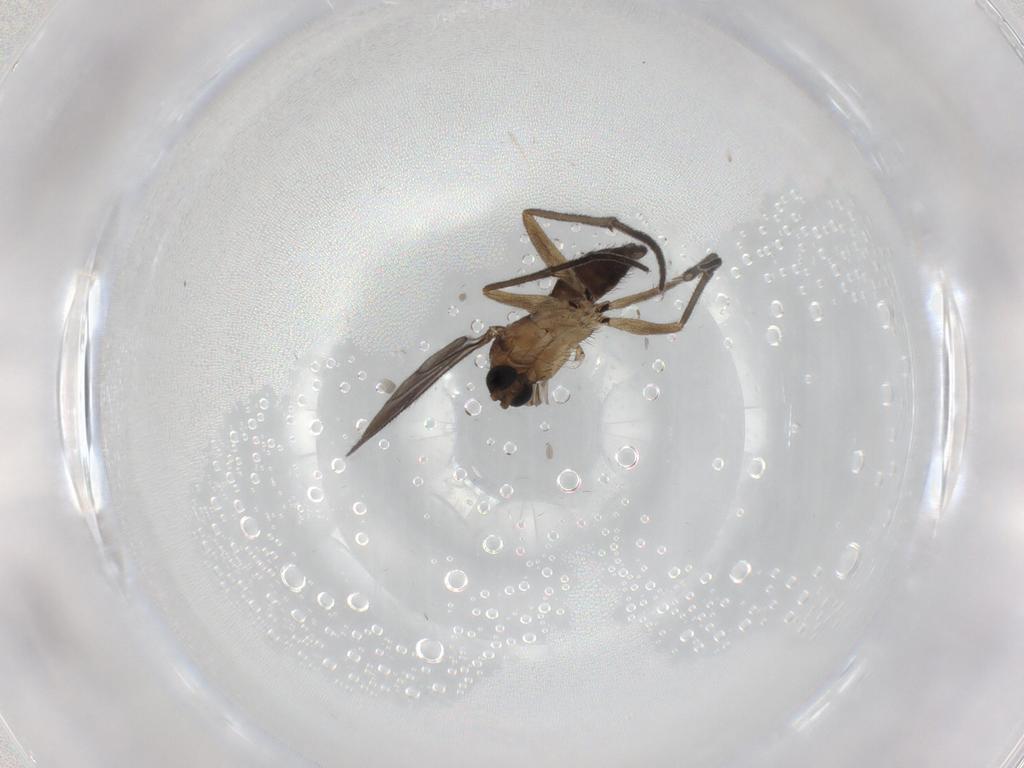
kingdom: Animalia
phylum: Arthropoda
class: Insecta
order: Diptera
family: Sciaridae
